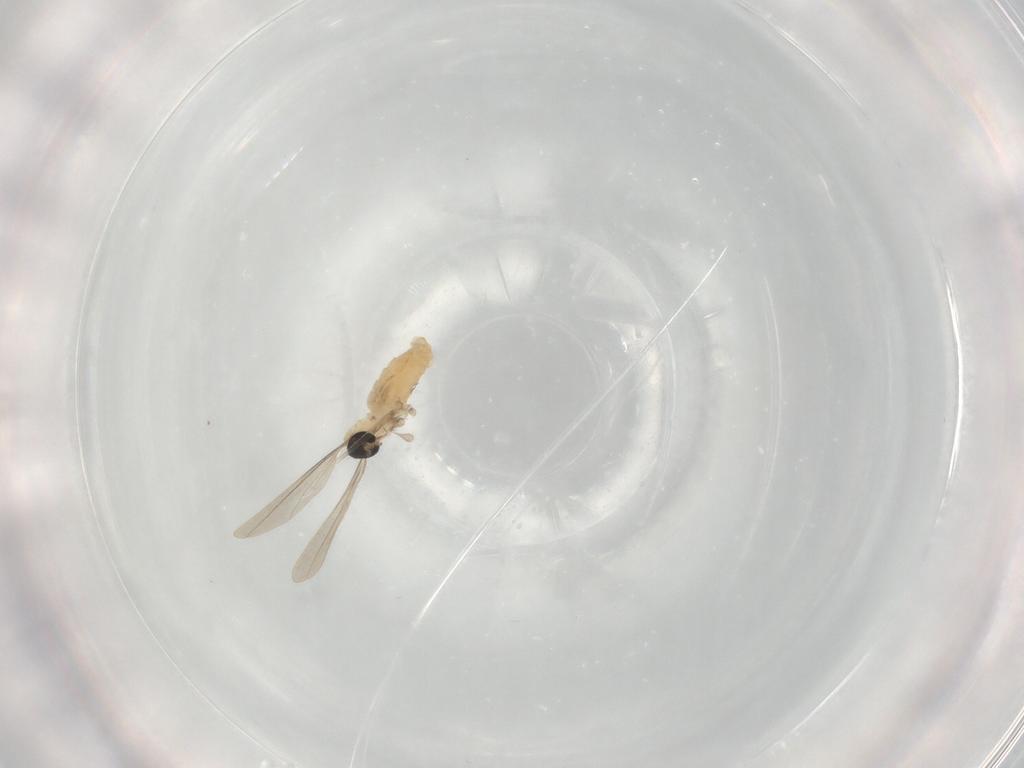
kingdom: Animalia
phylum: Arthropoda
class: Insecta
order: Diptera
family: Cecidomyiidae
